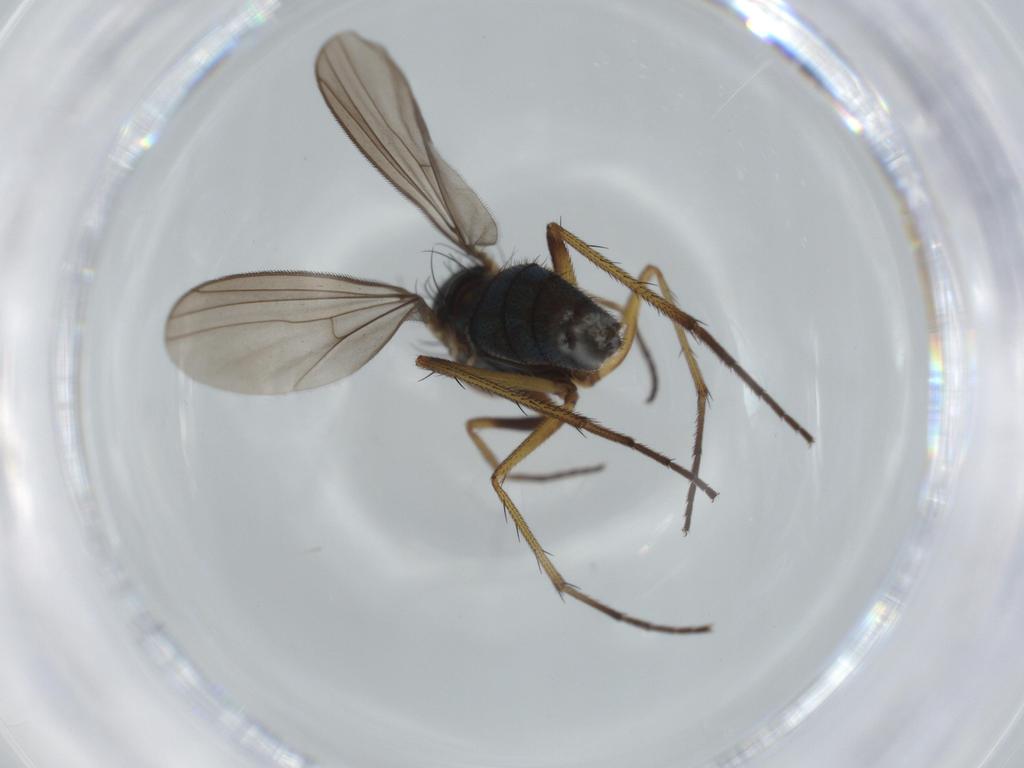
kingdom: Animalia
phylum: Arthropoda
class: Insecta
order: Diptera
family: Dolichopodidae
